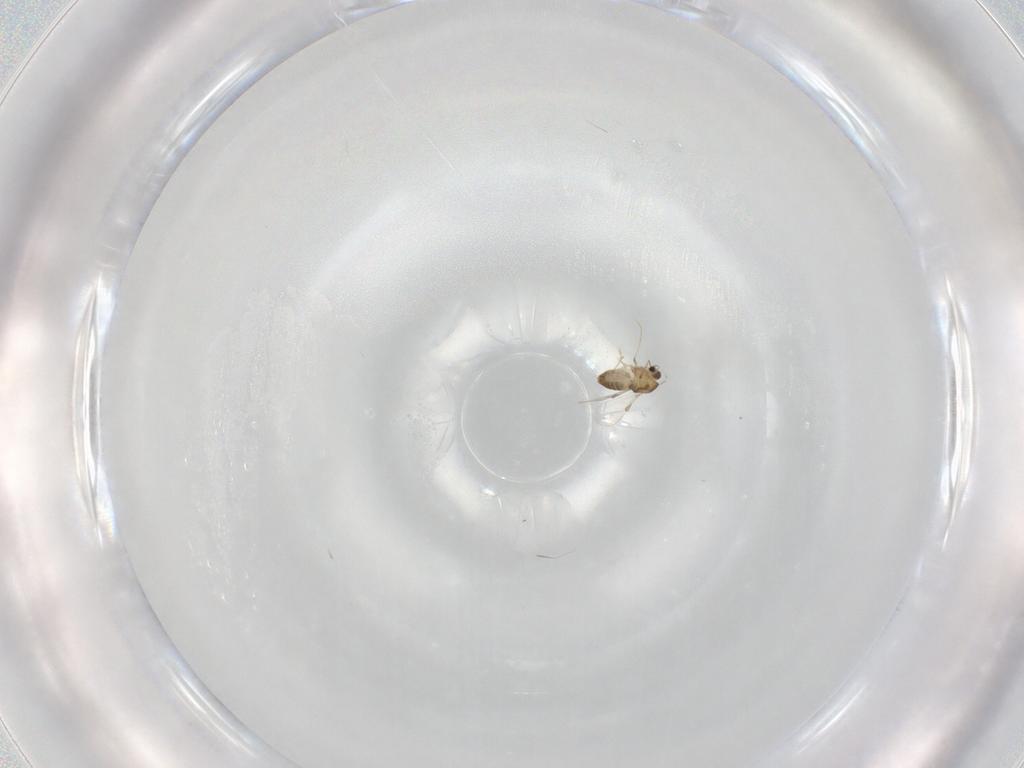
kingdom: Animalia
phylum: Arthropoda
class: Insecta
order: Diptera
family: Chironomidae
